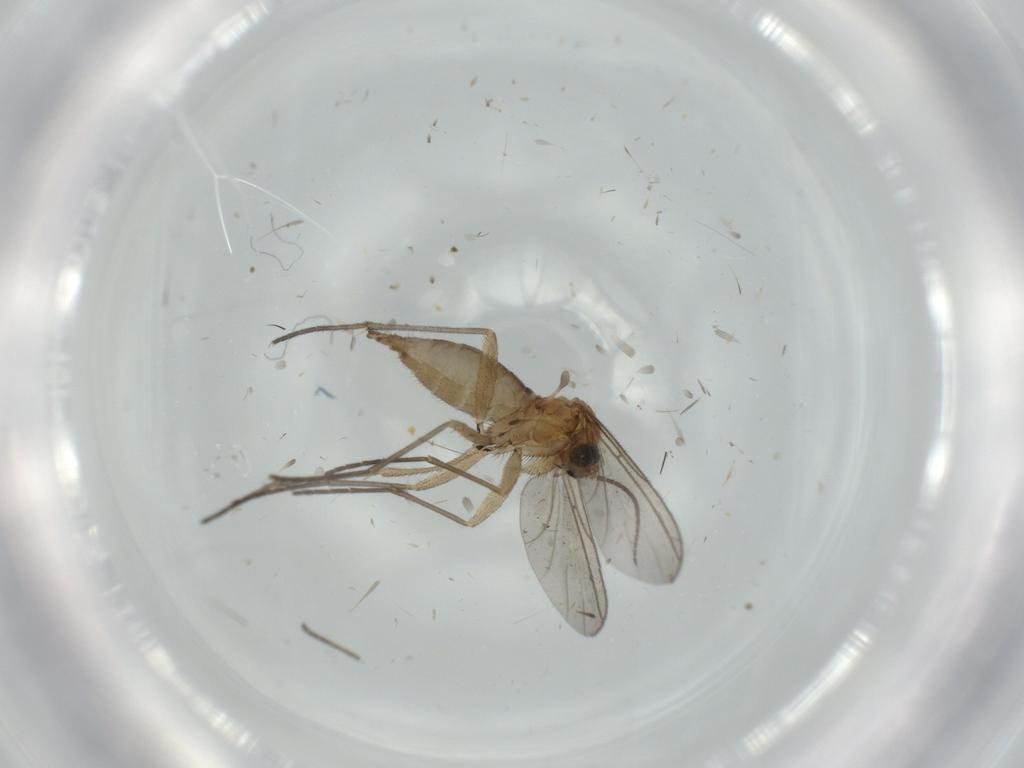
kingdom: Animalia
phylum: Arthropoda
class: Insecta
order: Diptera
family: Sciaridae
